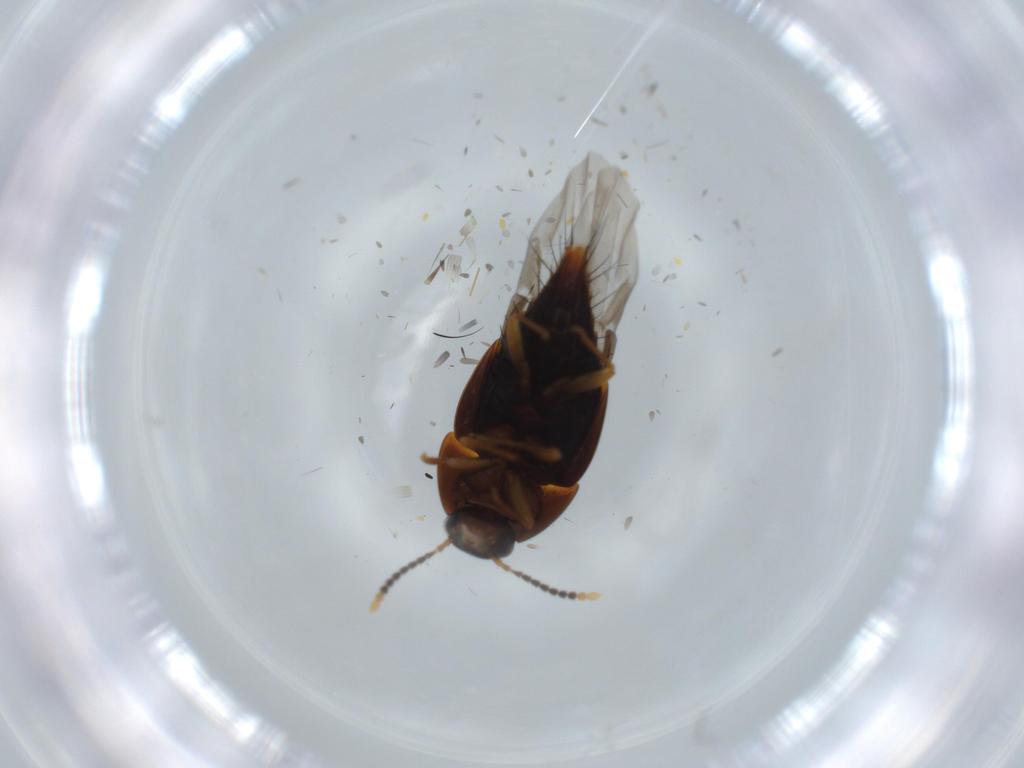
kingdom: Animalia
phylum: Arthropoda
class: Insecta
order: Coleoptera
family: Staphylinidae
